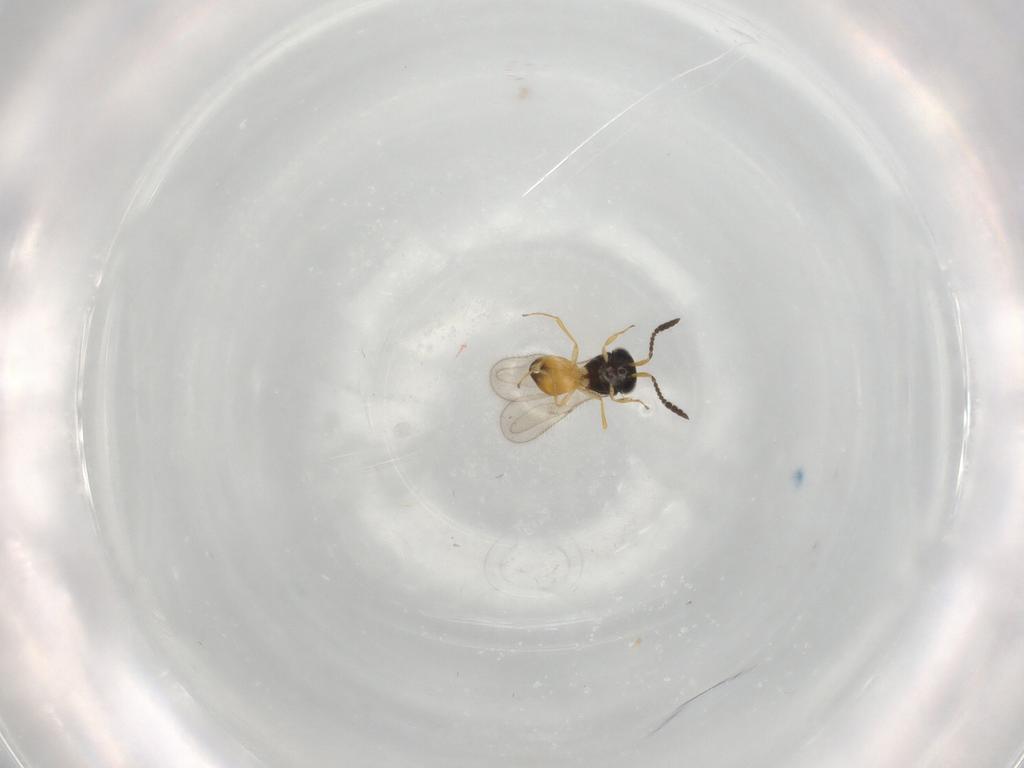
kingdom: Animalia
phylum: Arthropoda
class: Insecta
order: Hymenoptera
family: Scelionidae
